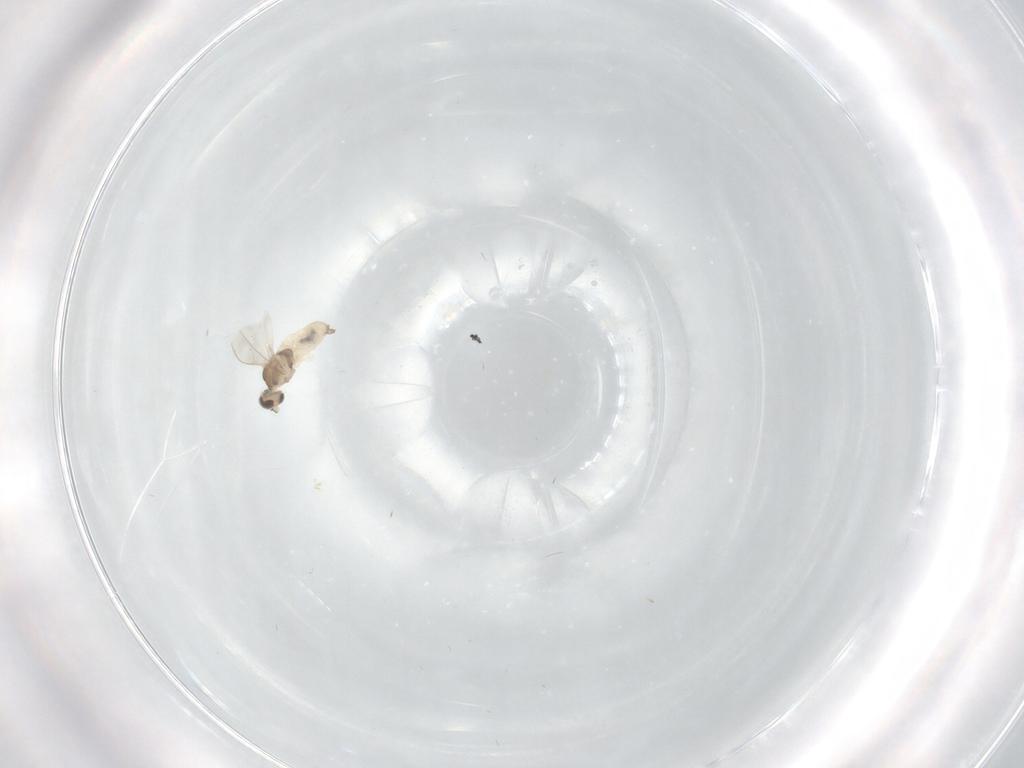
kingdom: Animalia
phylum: Arthropoda
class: Insecta
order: Diptera
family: Cecidomyiidae
